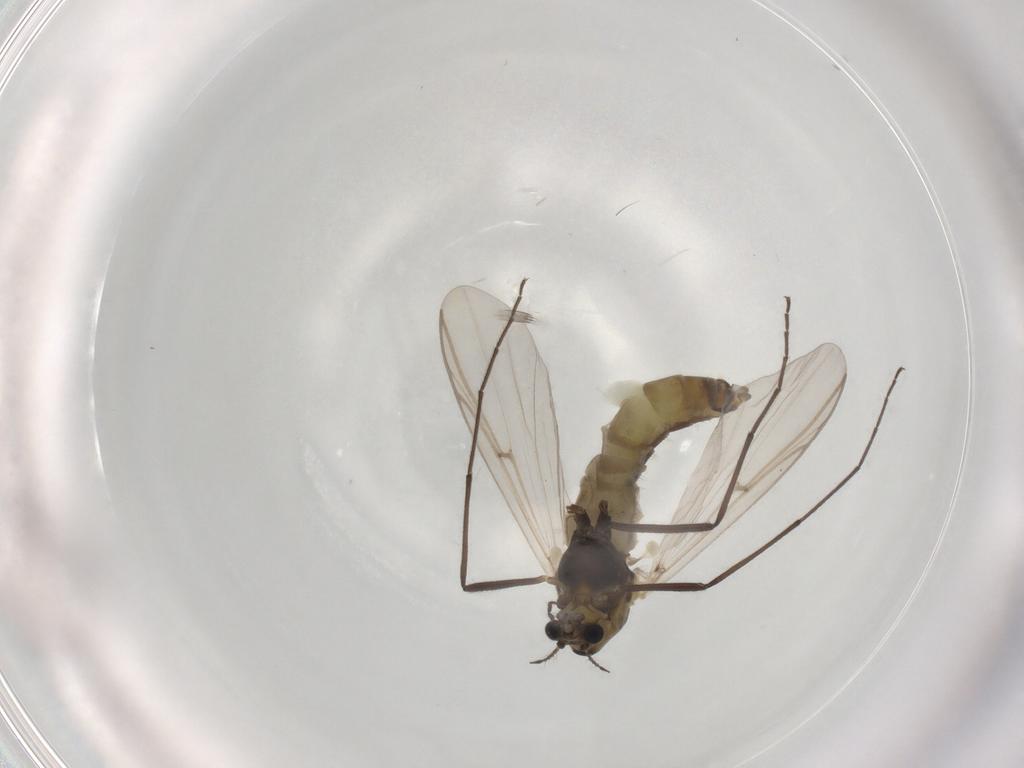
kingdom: Animalia
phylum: Arthropoda
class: Insecta
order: Diptera
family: Chironomidae
